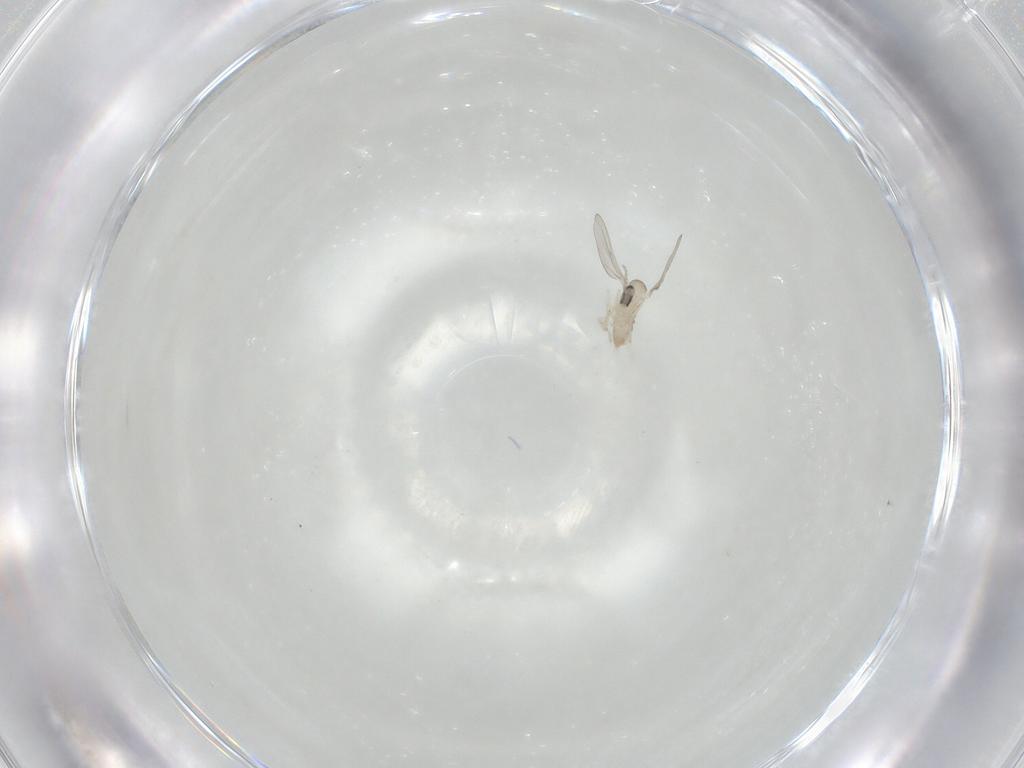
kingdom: Animalia
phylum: Arthropoda
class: Insecta
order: Diptera
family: Cecidomyiidae
